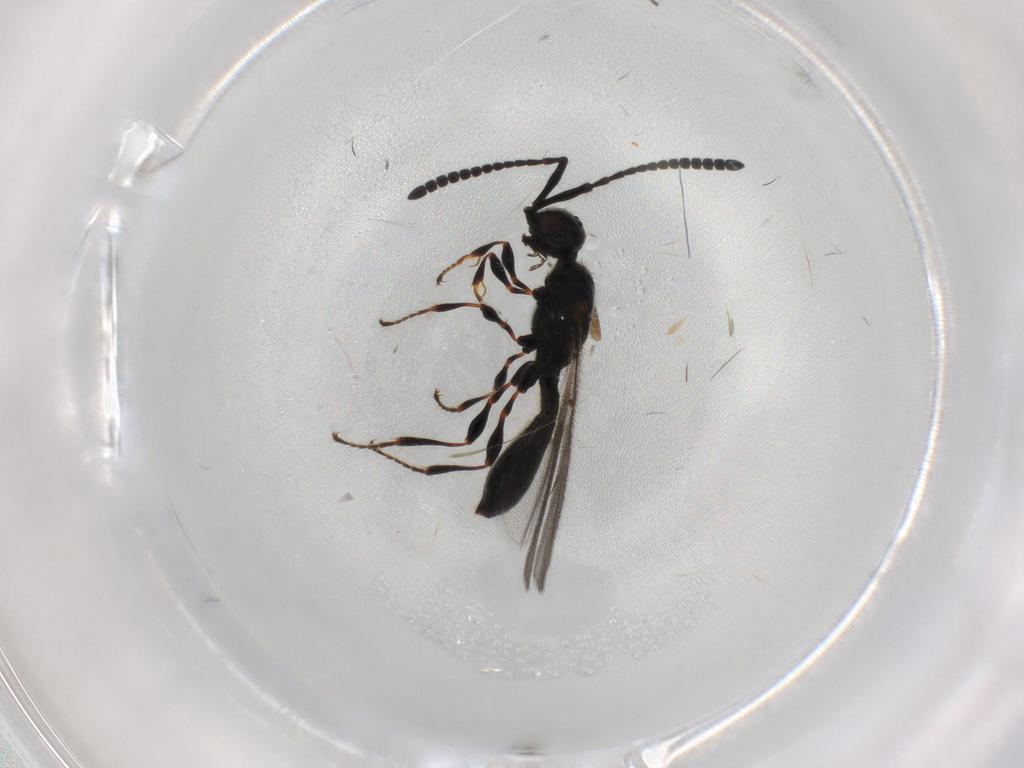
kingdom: Animalia
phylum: Arthropoda
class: Insecta
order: Hymenoptera
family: Diapriidae
